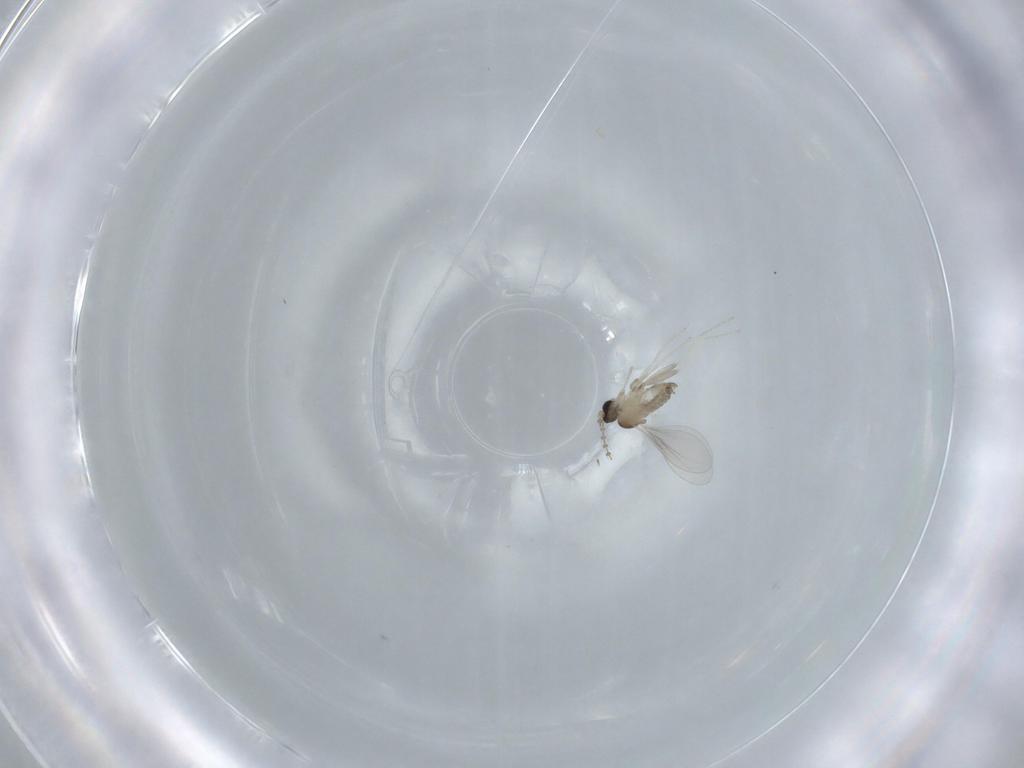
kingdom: Animalia
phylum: Arthropoda
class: Insecta
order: Diptera
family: Cecidomyiidae
